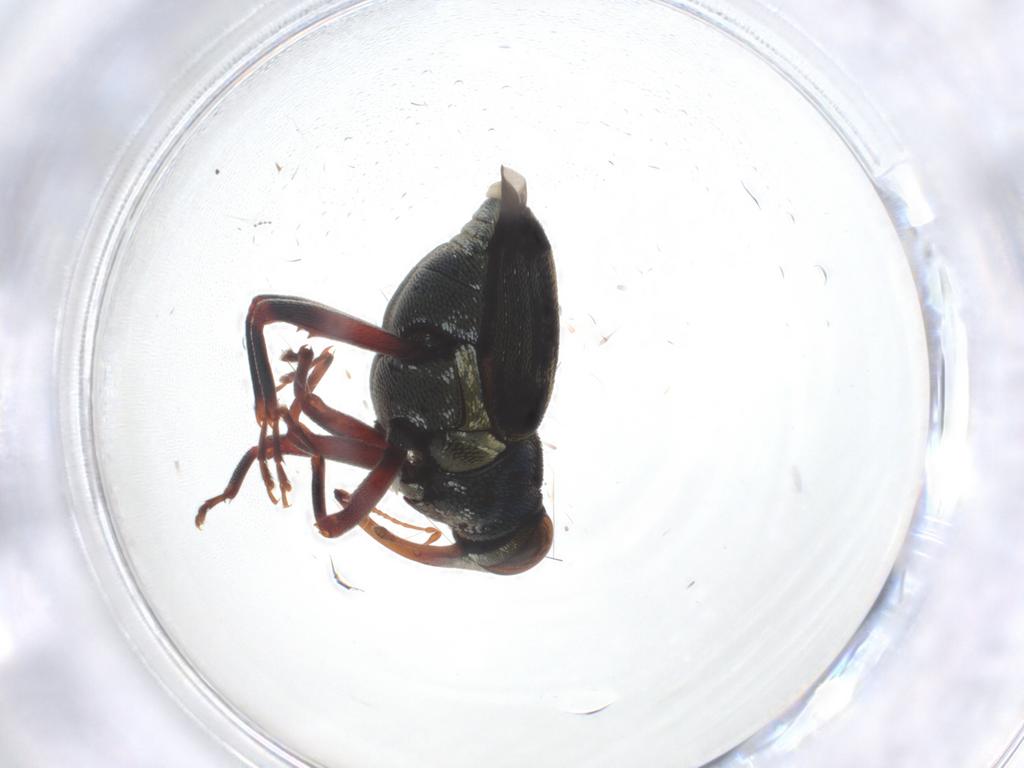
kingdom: Animalia
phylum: Arthropoda
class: Insecta
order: Coleoptera
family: Curculionidae
